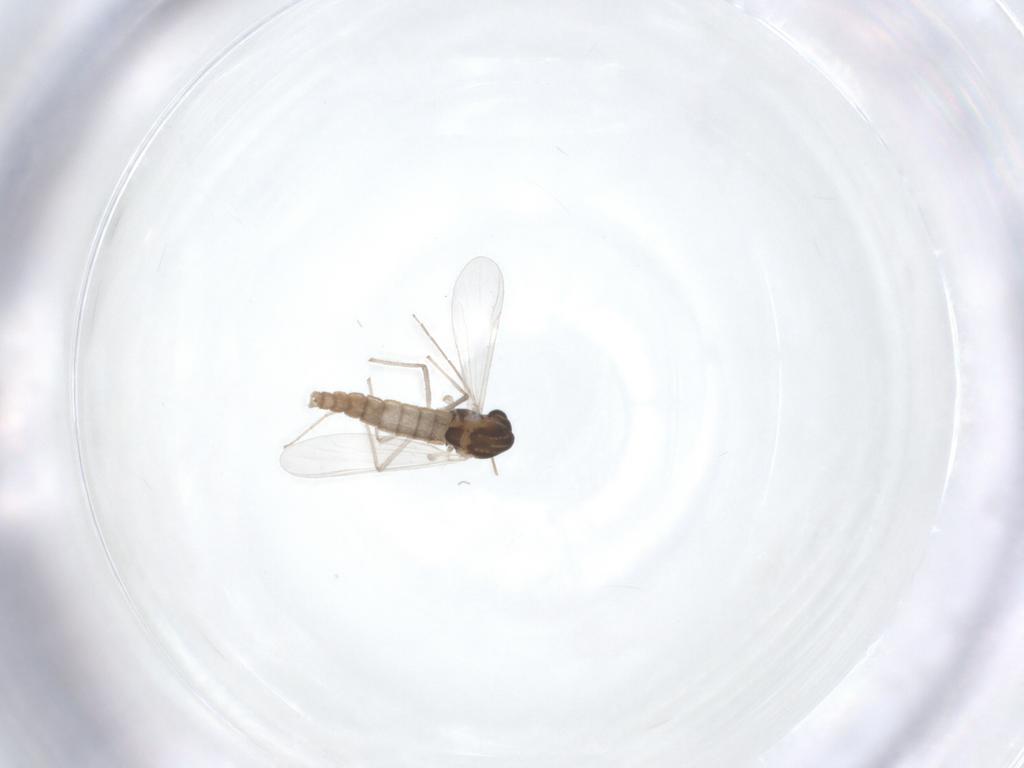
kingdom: Animalia
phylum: Arthropoda
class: Insecta
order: Diptera
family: Chironomidae
